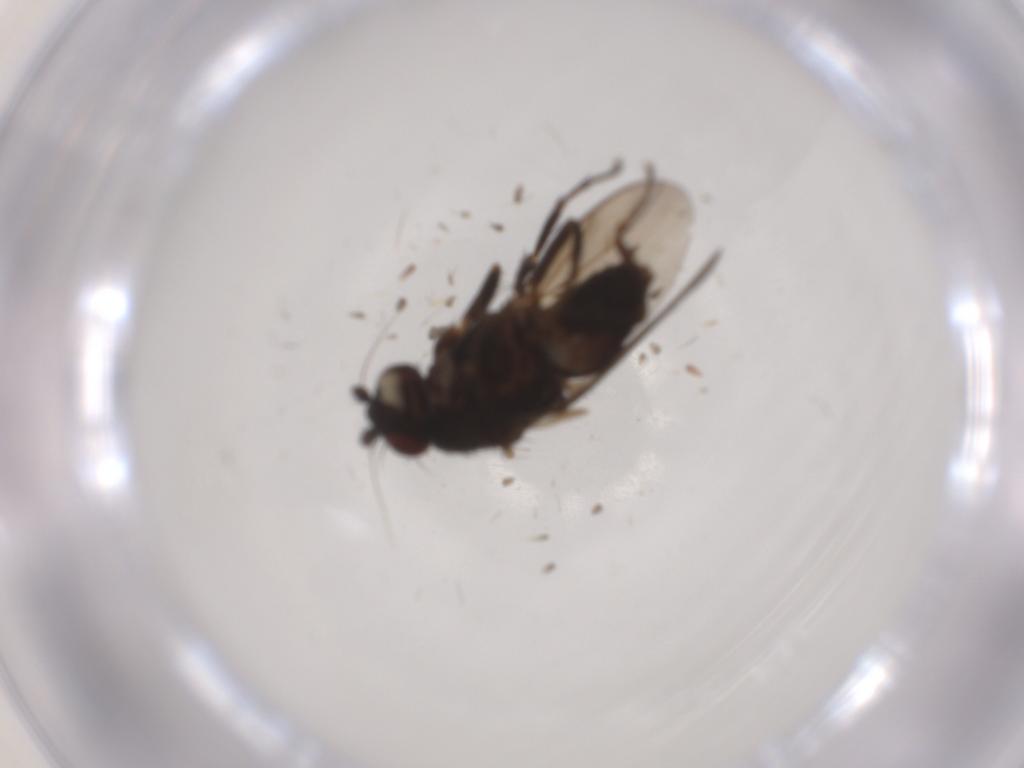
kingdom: Animalia
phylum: Arthropoda
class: Insecta
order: Diptera
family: Sphaeroceridae
